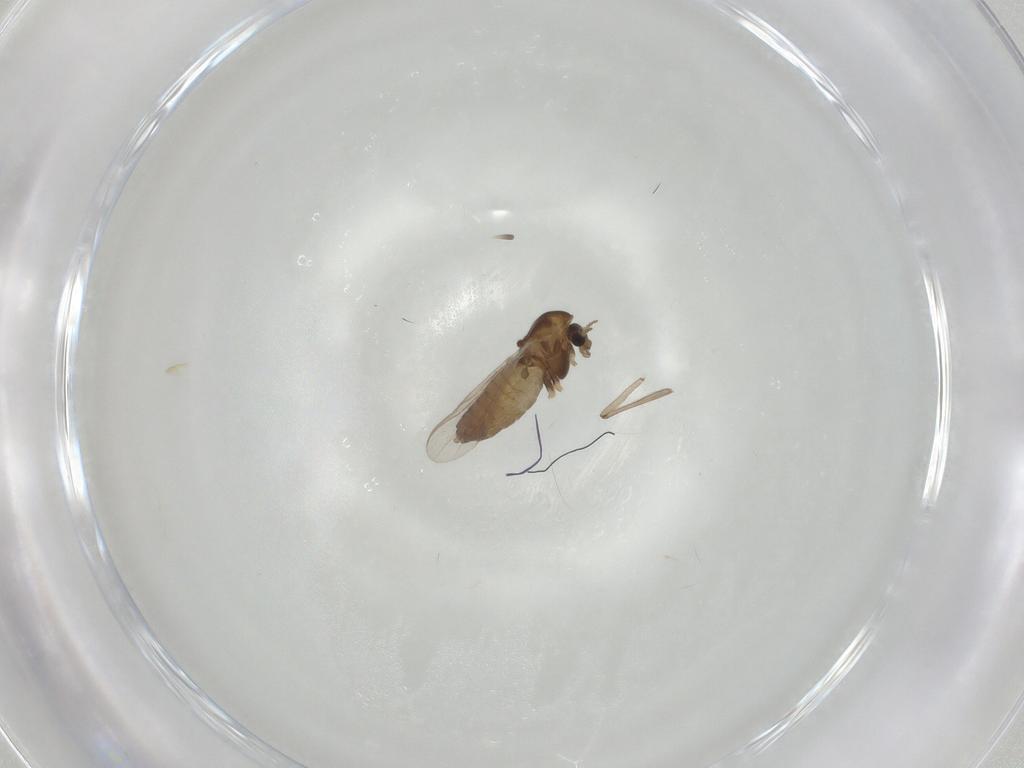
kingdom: Animalia
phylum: Arthropoda
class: Insecta
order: Diptera
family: Chironomidae
